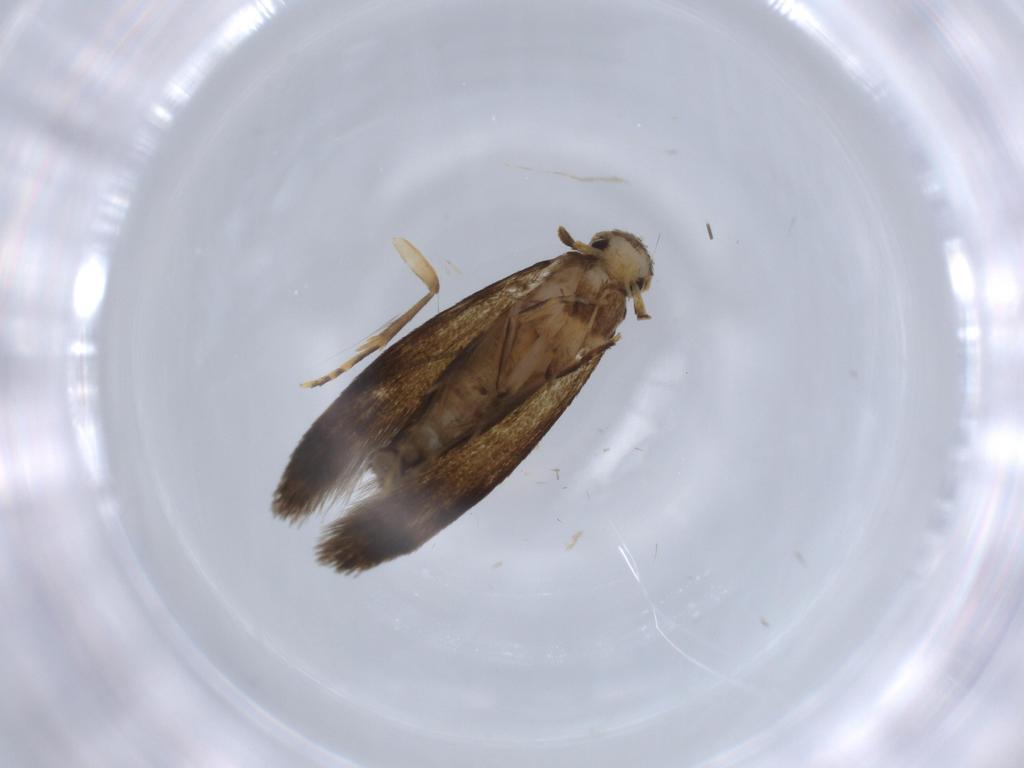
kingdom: Animalia
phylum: Arthropoda
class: Insecta
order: Lepidoptera
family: Tineidae
